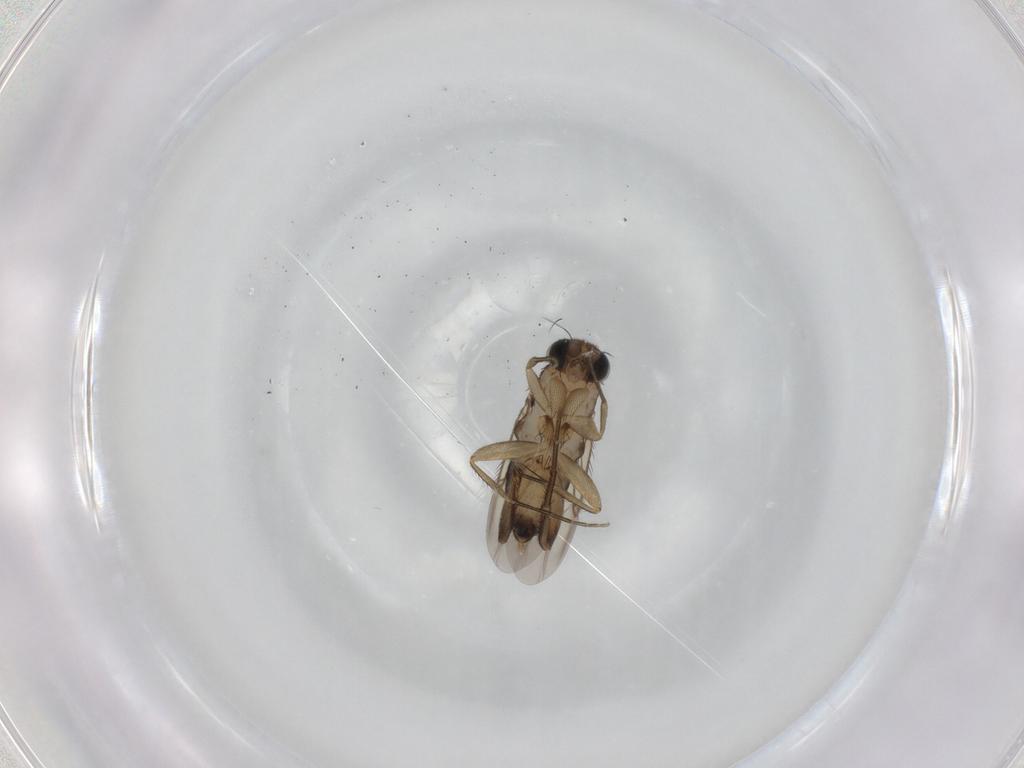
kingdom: Animalia
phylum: Arthropoda
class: Insecta
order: Diptera
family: Phoridae
